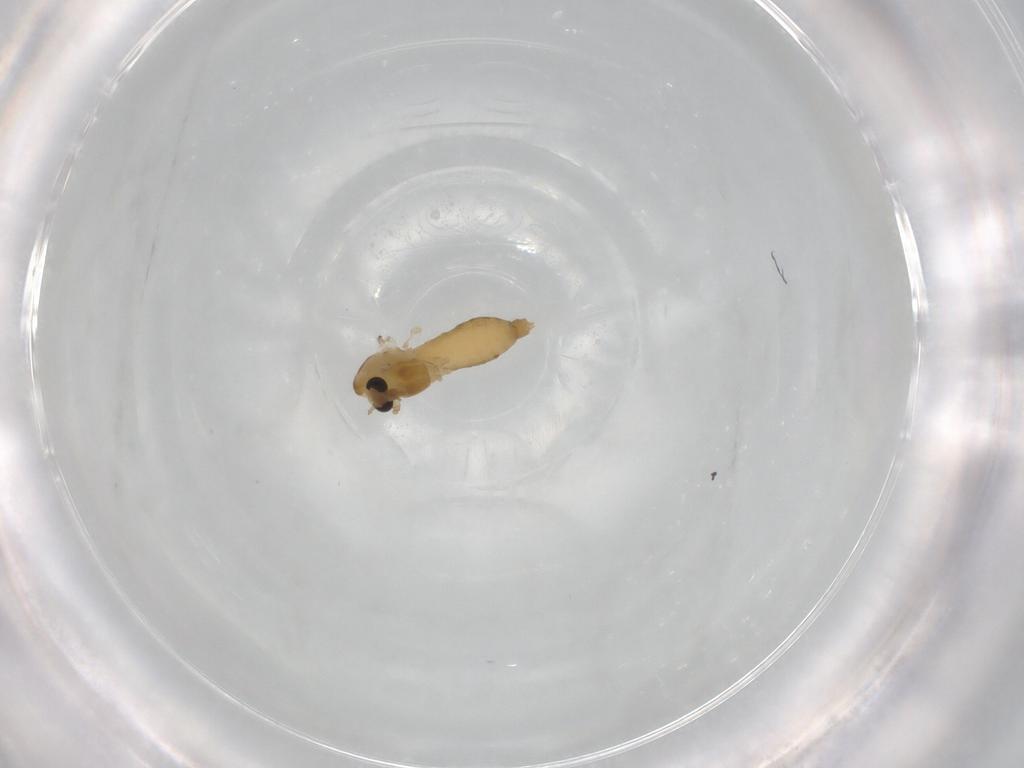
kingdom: Animalia
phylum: Arthropoda
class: Insecta
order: Diptera
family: Chironomidae
